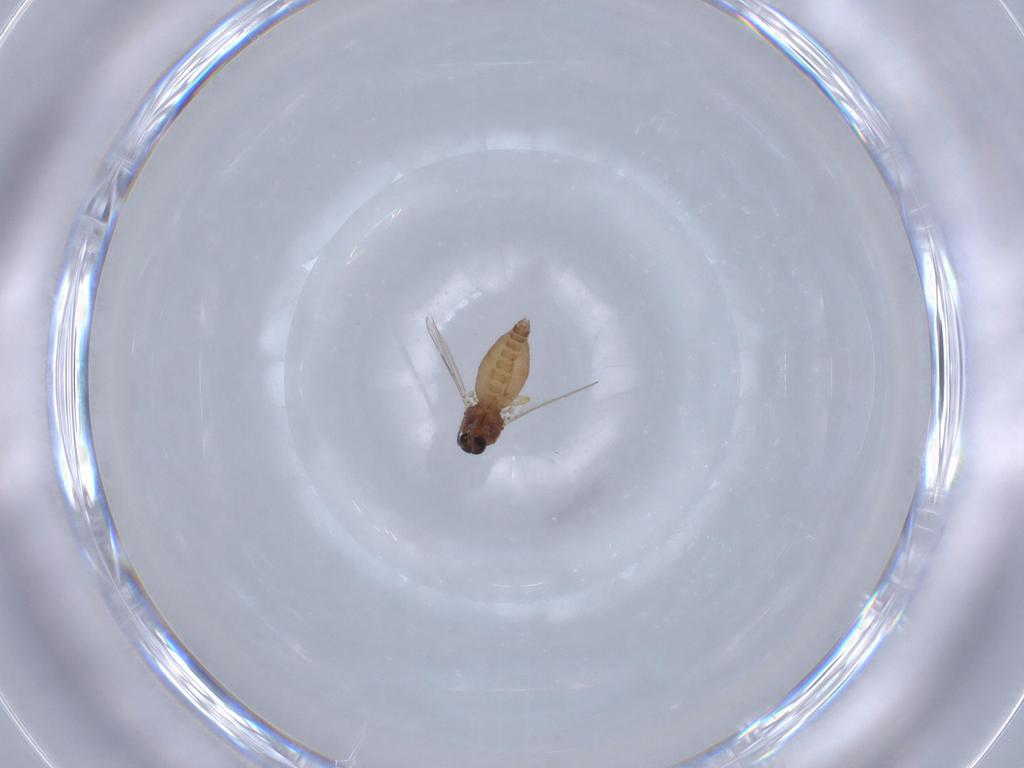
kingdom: Animalia
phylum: Arthropoda
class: Insecta
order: Diptera
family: Ceratopogonidae
